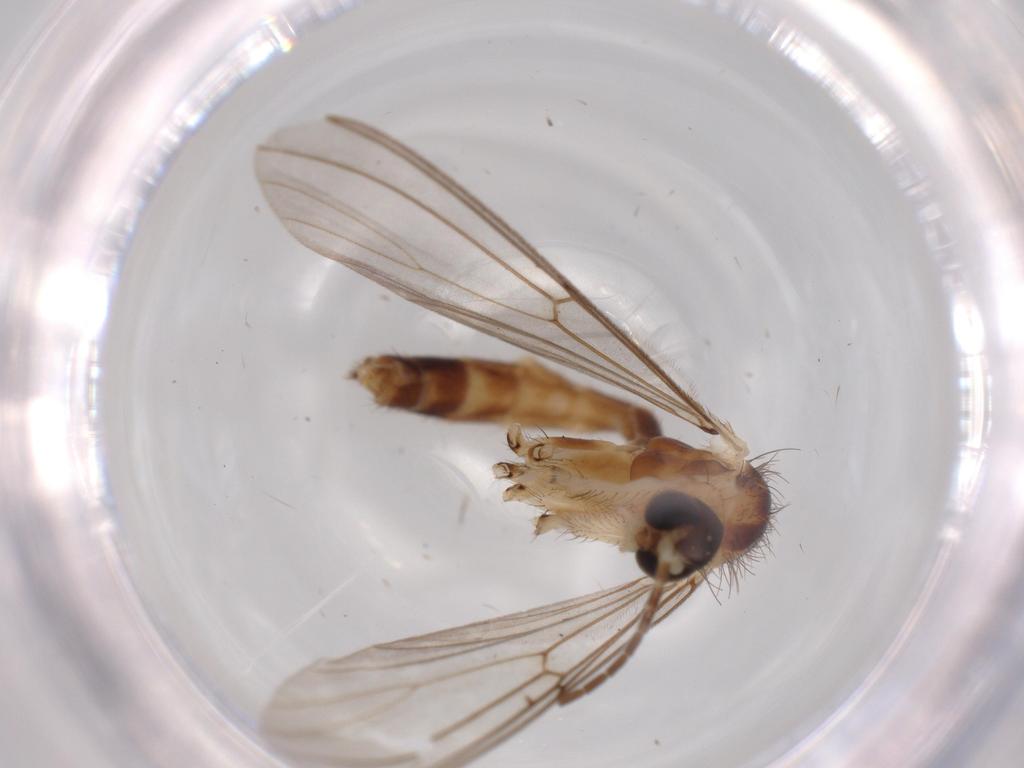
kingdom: Animalia
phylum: Arthropoda
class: Insecta
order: Diptera
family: Muscidae
